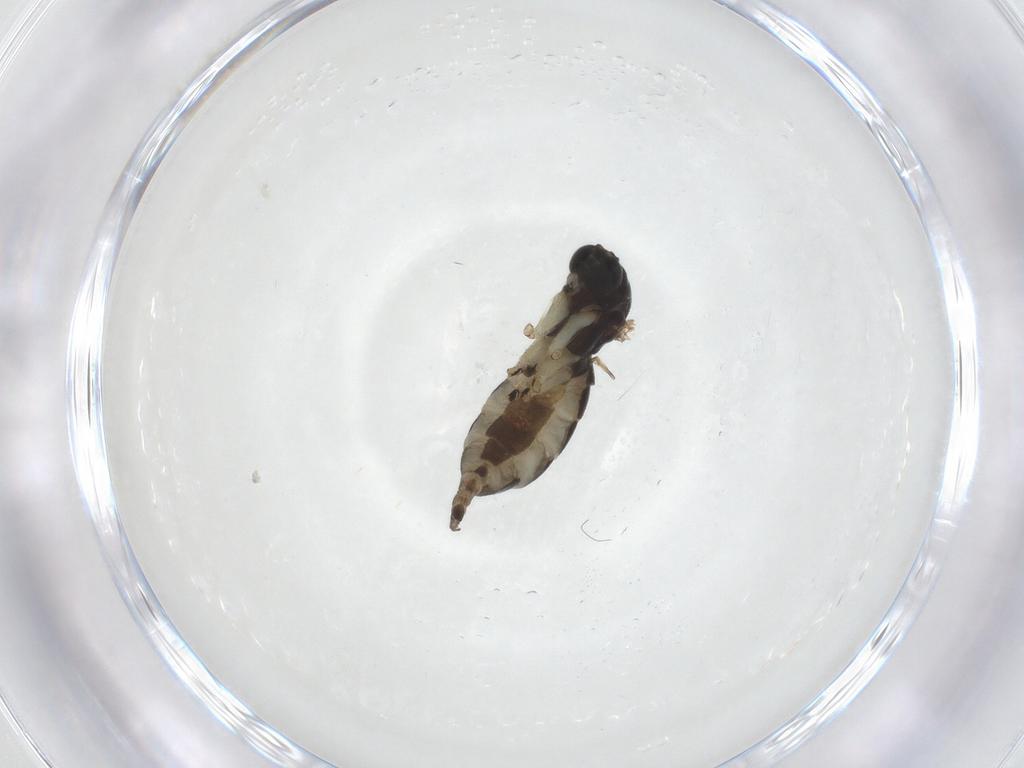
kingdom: Animalia
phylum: Arthropoda
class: Insecta
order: Diptera
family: Sciaridae
